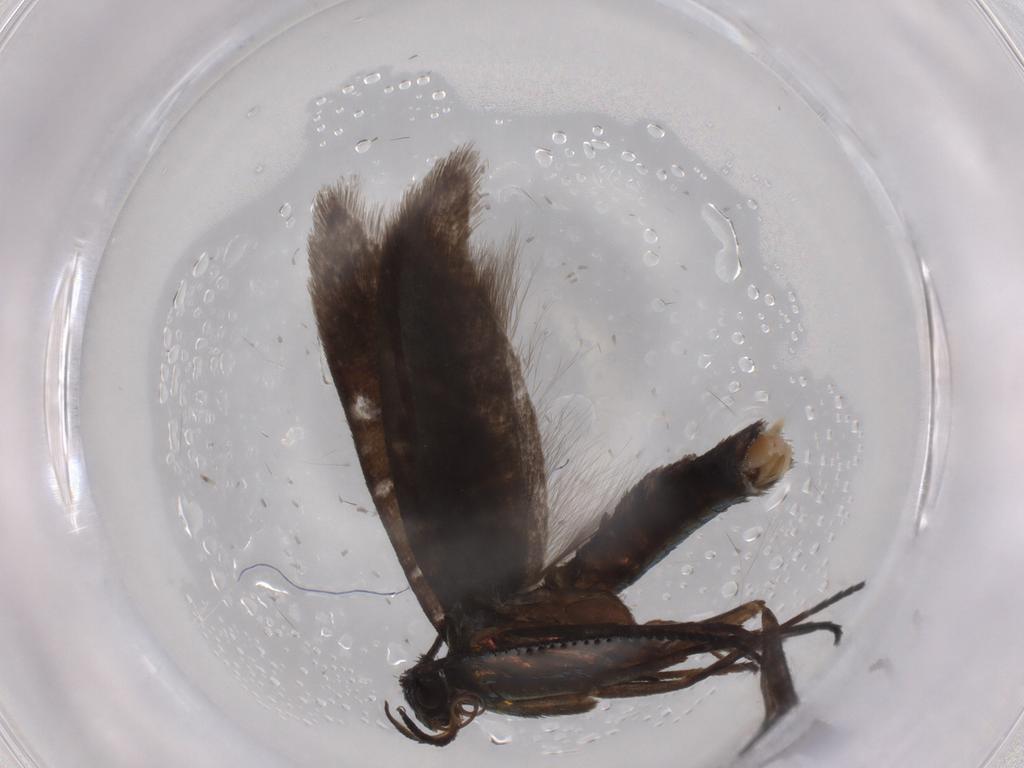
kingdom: Animalia
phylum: Arthropoda
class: Insecta
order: Lepidoptera
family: Argyresthiidae
